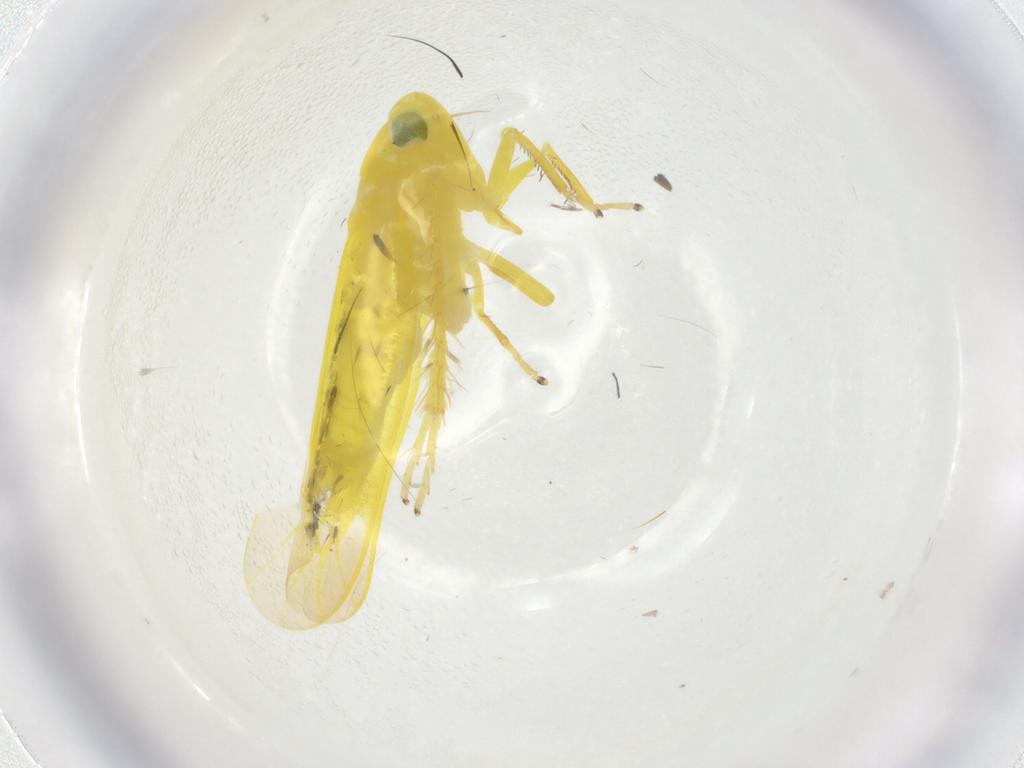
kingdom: Animalia
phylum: Arthropoda
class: Insecta
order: Hemiptera
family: Cicadellidae
